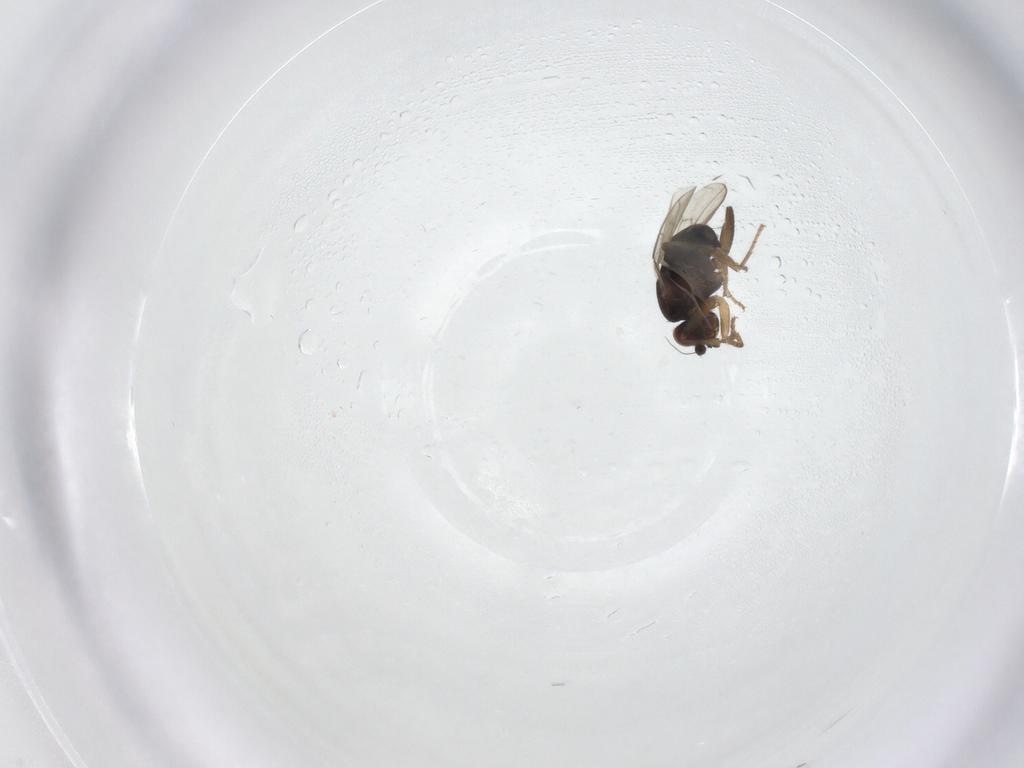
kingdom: Animalia
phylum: Arthropoda
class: Insecta
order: Diptera
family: Sphaeroceridae
